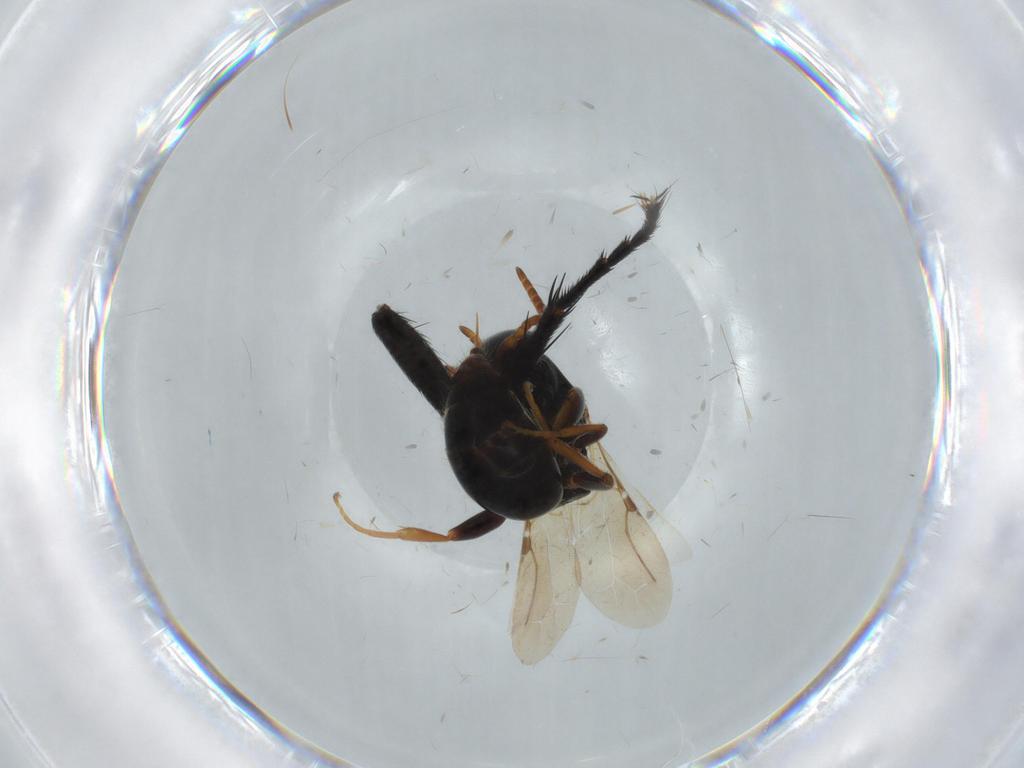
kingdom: Animalia
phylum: Arthropoda
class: Insecta
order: Hymenoptera
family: Bethylidae
